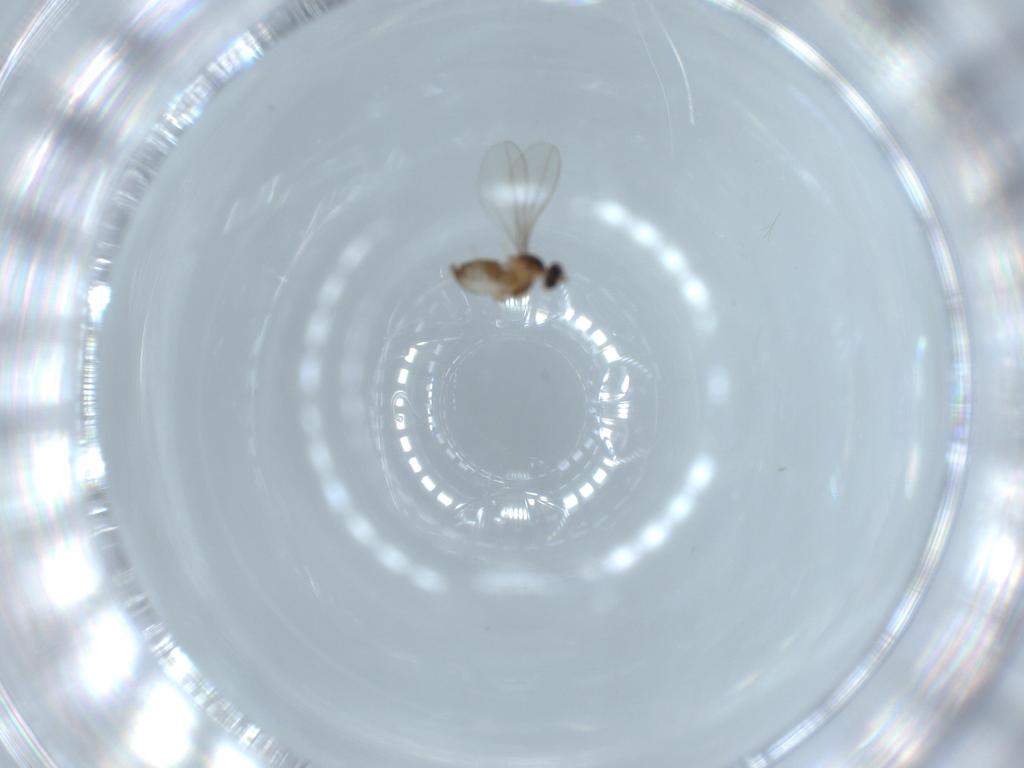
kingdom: Animalia
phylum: Arthropoda
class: Insecta
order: Diptera
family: Cecidomyiidae
